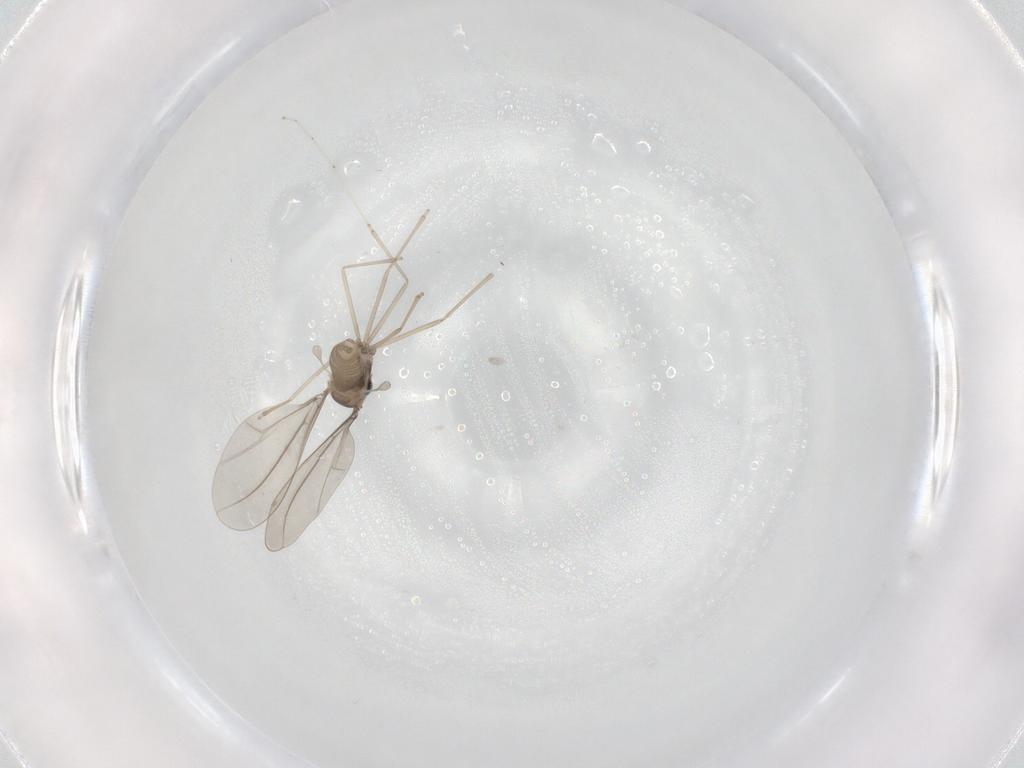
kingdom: Animalia
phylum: Arthropoda
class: Insecta
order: Diptera
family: Cecidomyiidae
